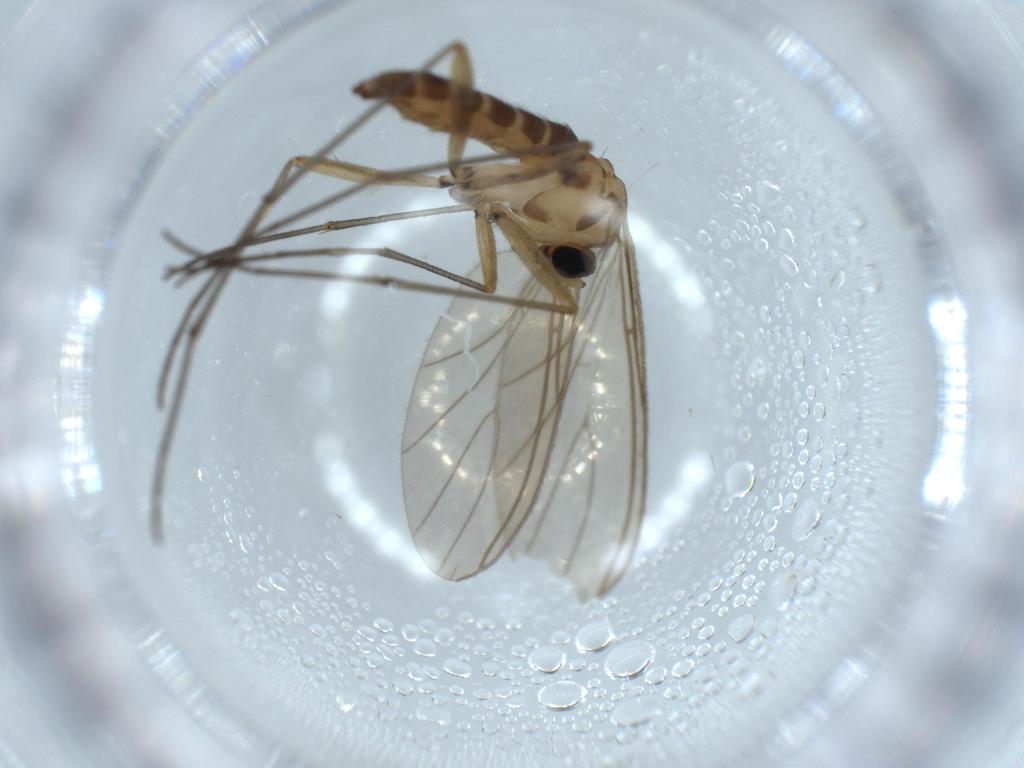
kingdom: Animalia
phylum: Arthropoda
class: Insecta
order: Diptera
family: Sciaridae
